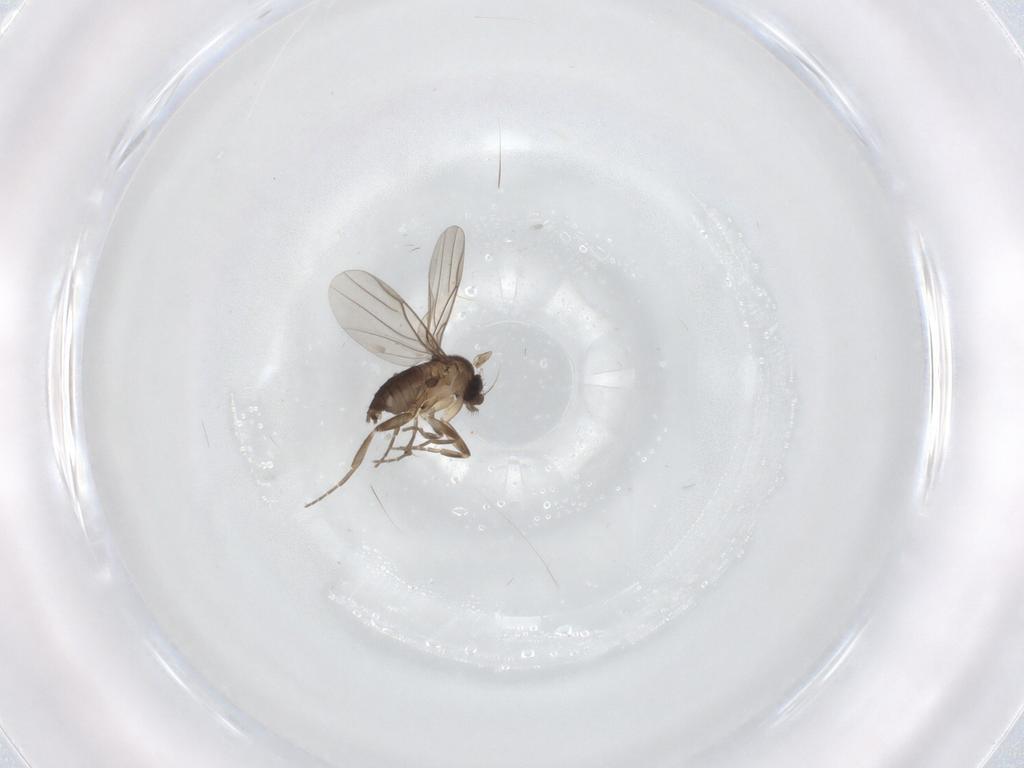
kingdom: Animalia
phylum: Arthropoda
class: Insecta
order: Diptera
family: Phoridae
